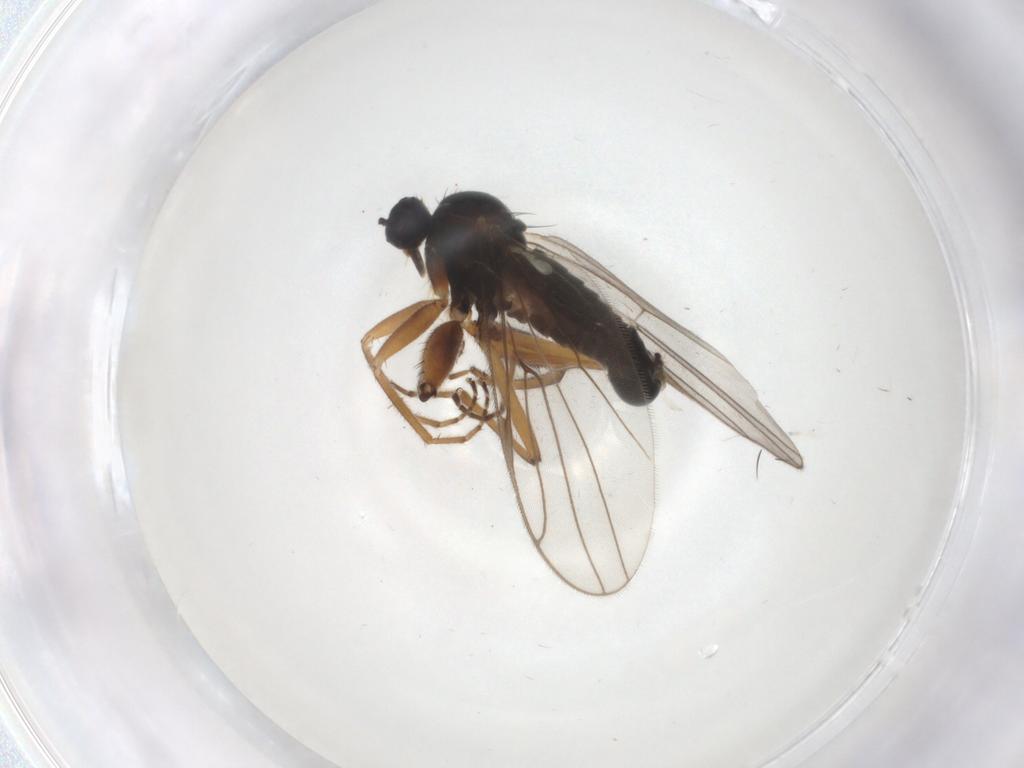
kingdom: Animalia
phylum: Arthropoda
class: Insecta
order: Diptera
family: Hybotidae
